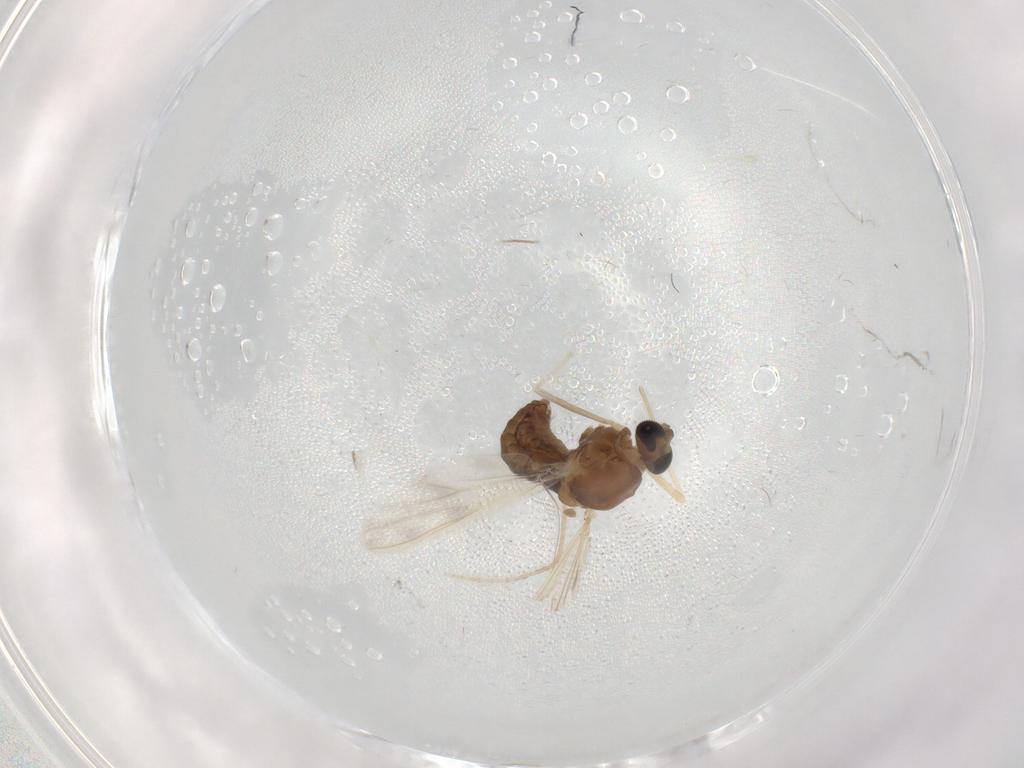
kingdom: Animalia
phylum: Arthropoda
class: Insecta
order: Diptera
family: Chironomidae
